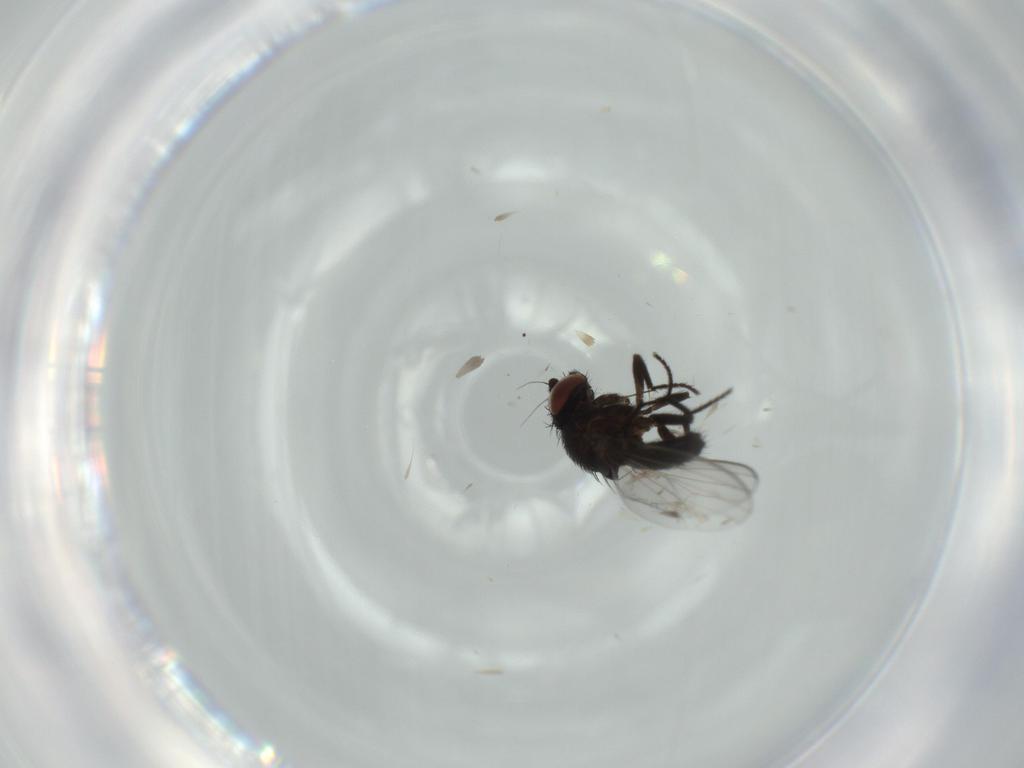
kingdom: Animalia
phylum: Arthropoda
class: Insecta
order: Diptera
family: Milichiidae
